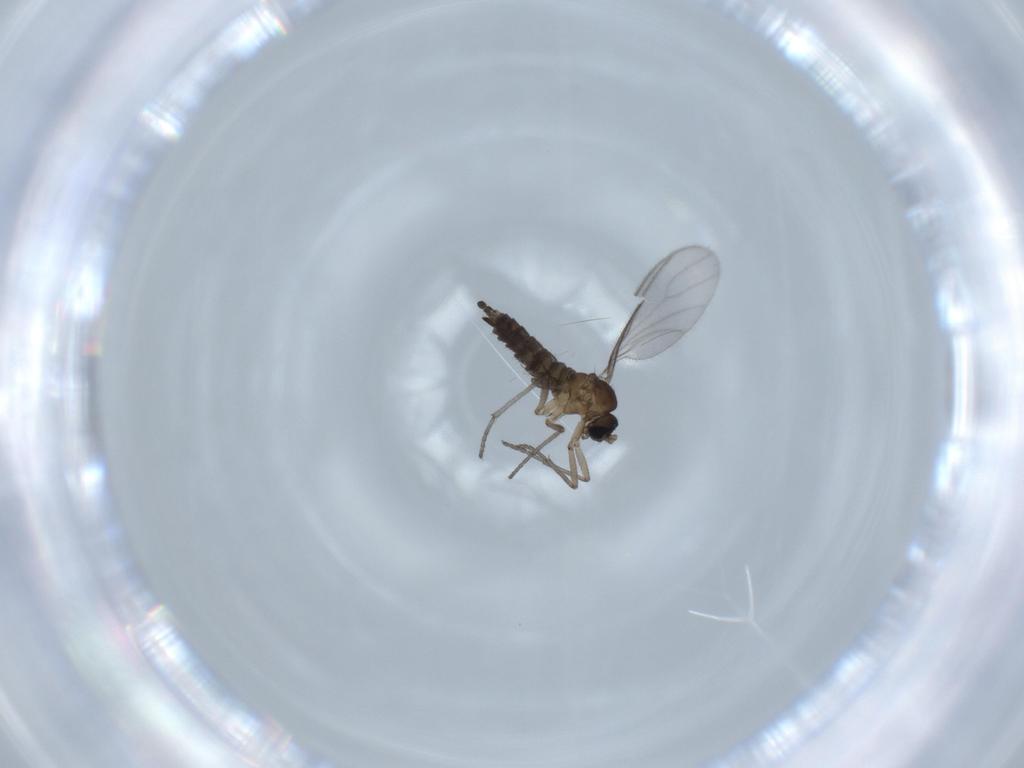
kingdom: Animalia
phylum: Arthropoda
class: Insecta
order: Diptera
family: Sciaridae
